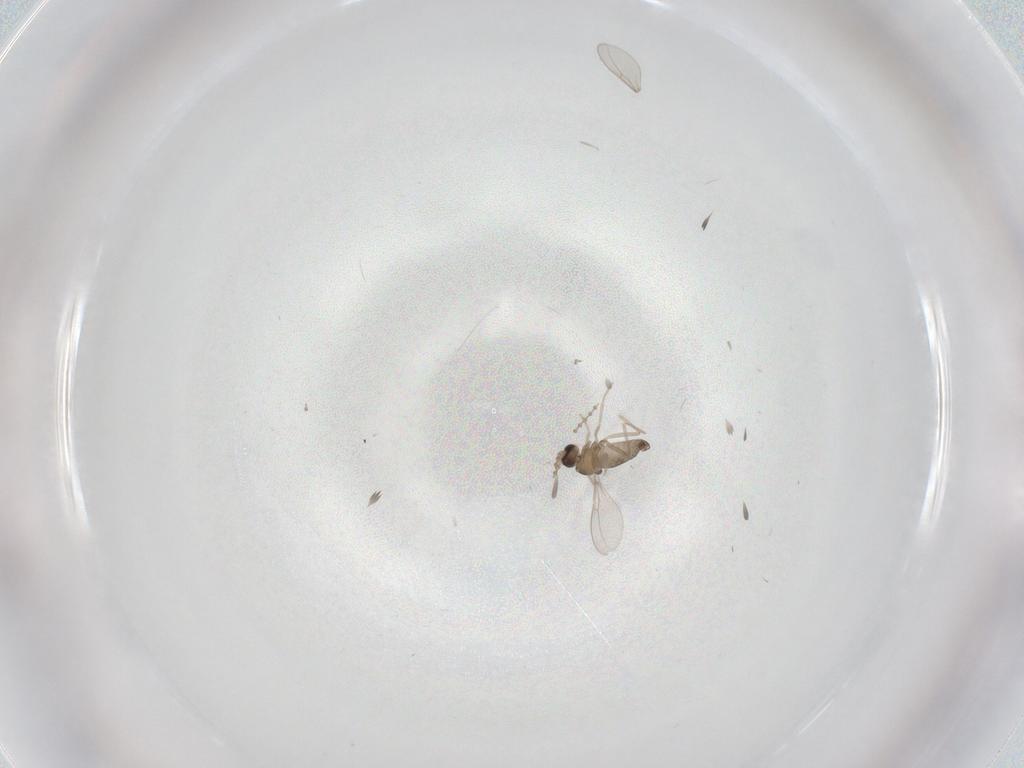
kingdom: Animalia
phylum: Arthropoda
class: Insecta
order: Diptera
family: Cecidomyiidae
